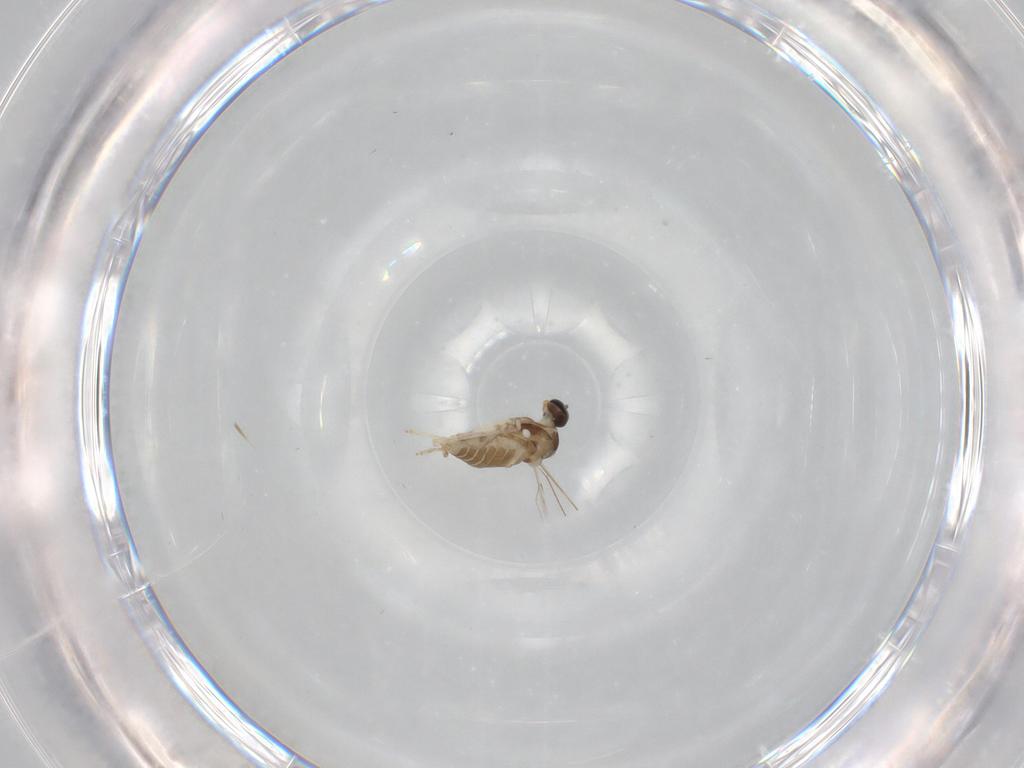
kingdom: Animalia
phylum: Arthropoda
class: Insecta
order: Diptera
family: Cecidomyiidae
